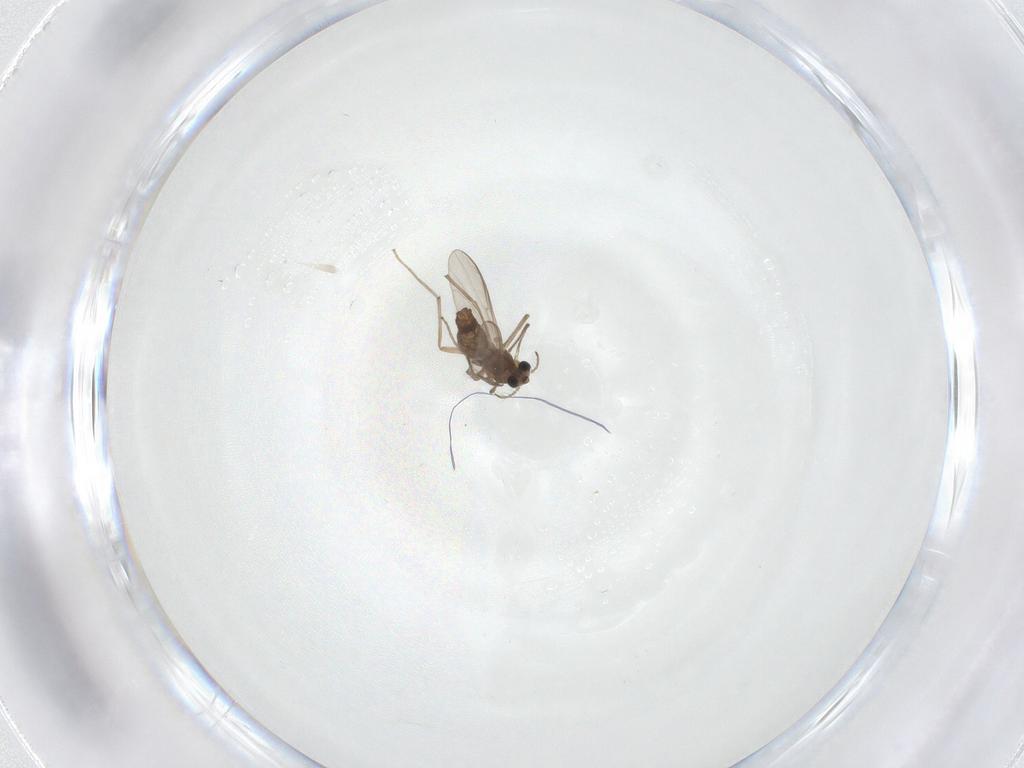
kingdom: Animalia
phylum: Arthropoda
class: Insecta
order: Diptera
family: Chironomidae
